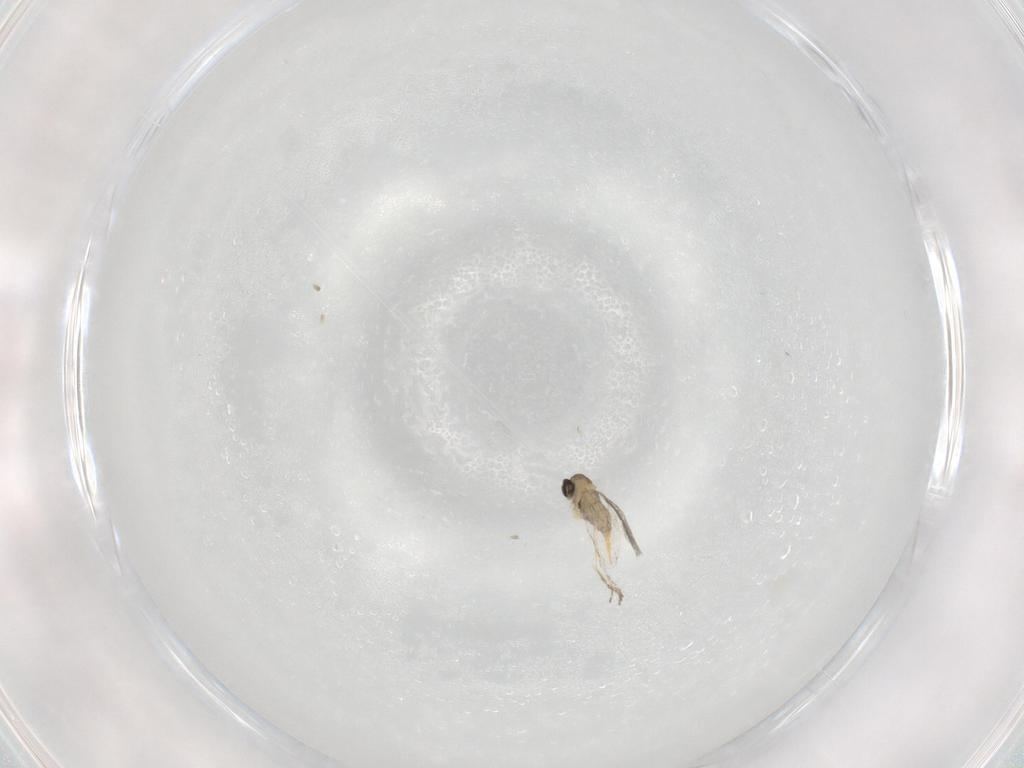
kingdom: Animalia
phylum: Arthropoda
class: Insecta
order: Diptera
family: Cecidomyiidae
